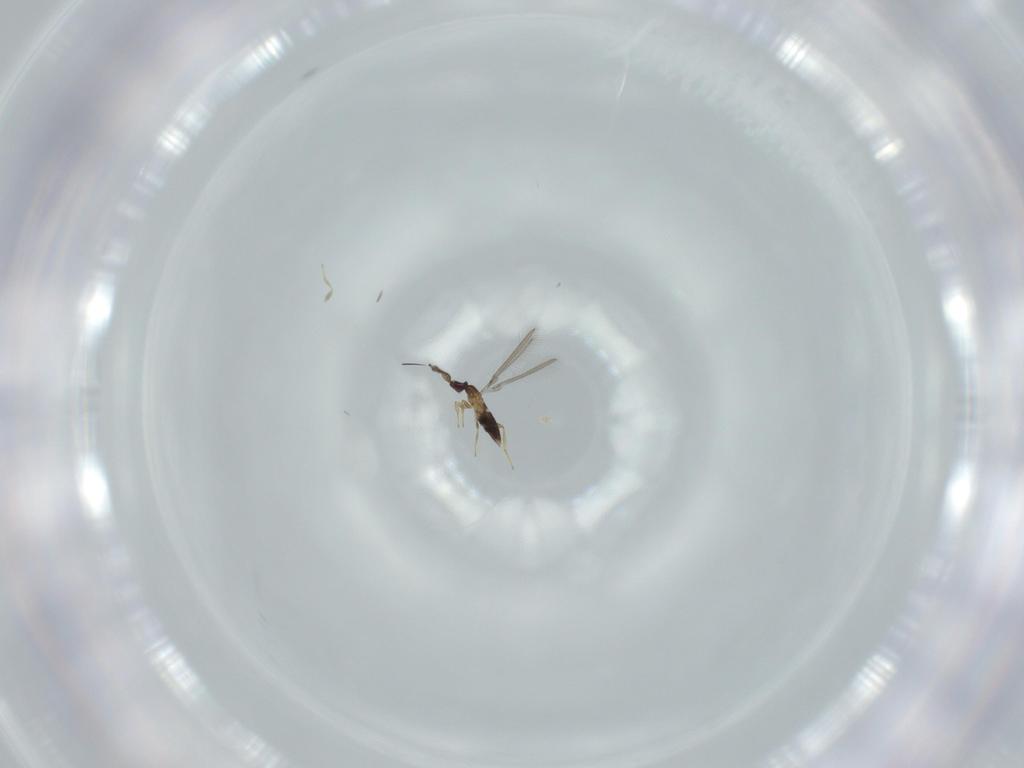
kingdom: Animalia
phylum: Arthropoda
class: Insecta
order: Hymenoptera
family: Mymaridae
